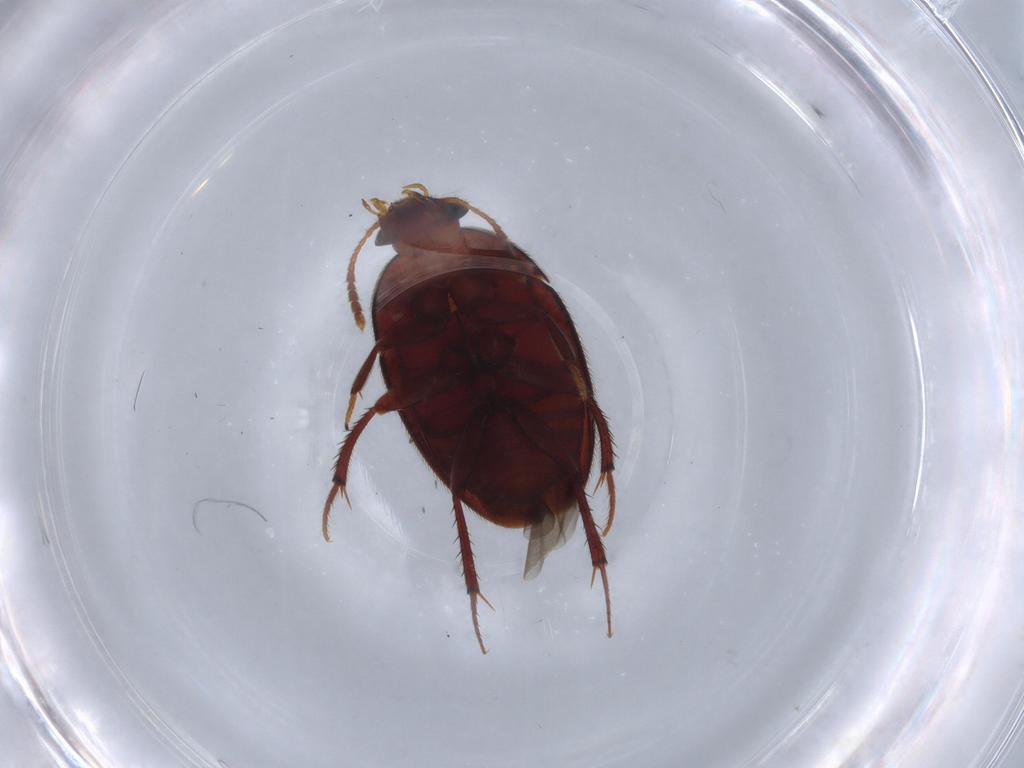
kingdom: Animalia
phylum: Arthropoda
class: Insecta
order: Coleoptera
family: Leiodidae
